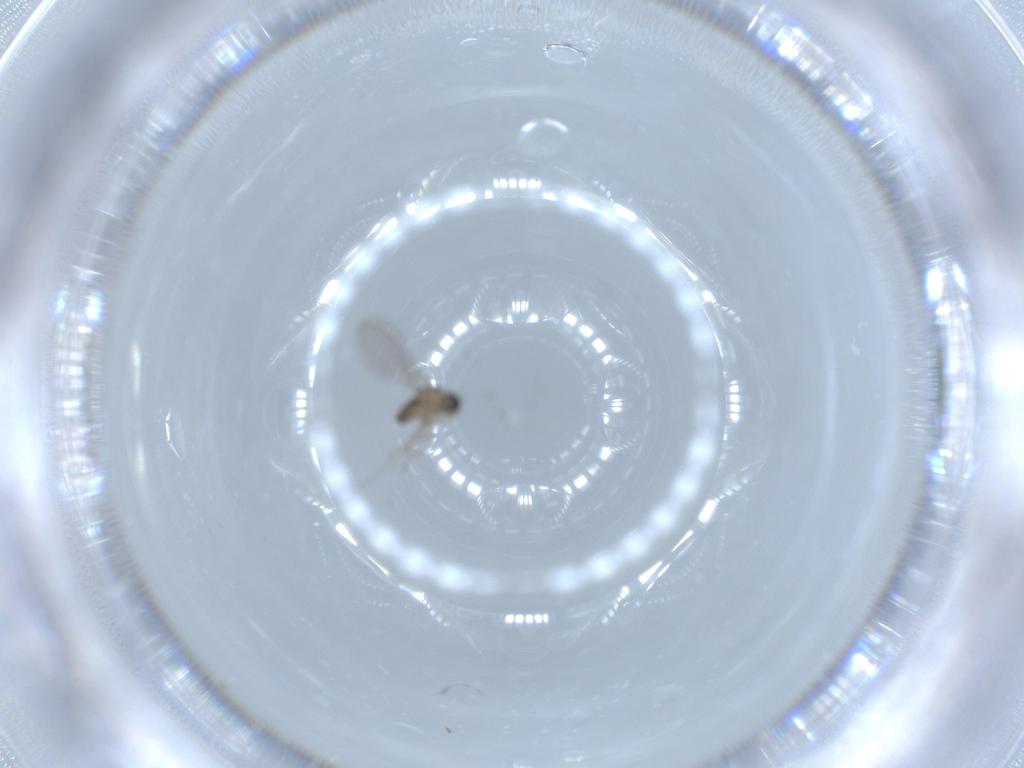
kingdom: Animalia
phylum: Arthropoda
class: Insecta
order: Diptera
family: Cecidomyiidae
